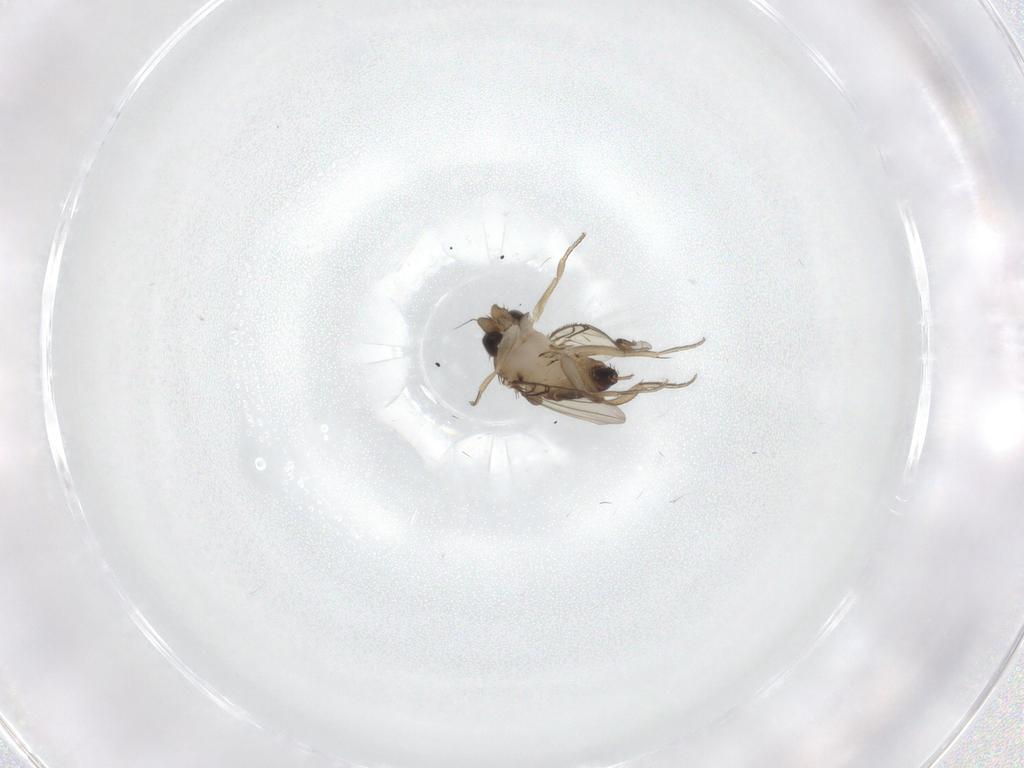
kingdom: Animalia
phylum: Arthropoda
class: Insecta
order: Diptera
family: Phoridae
